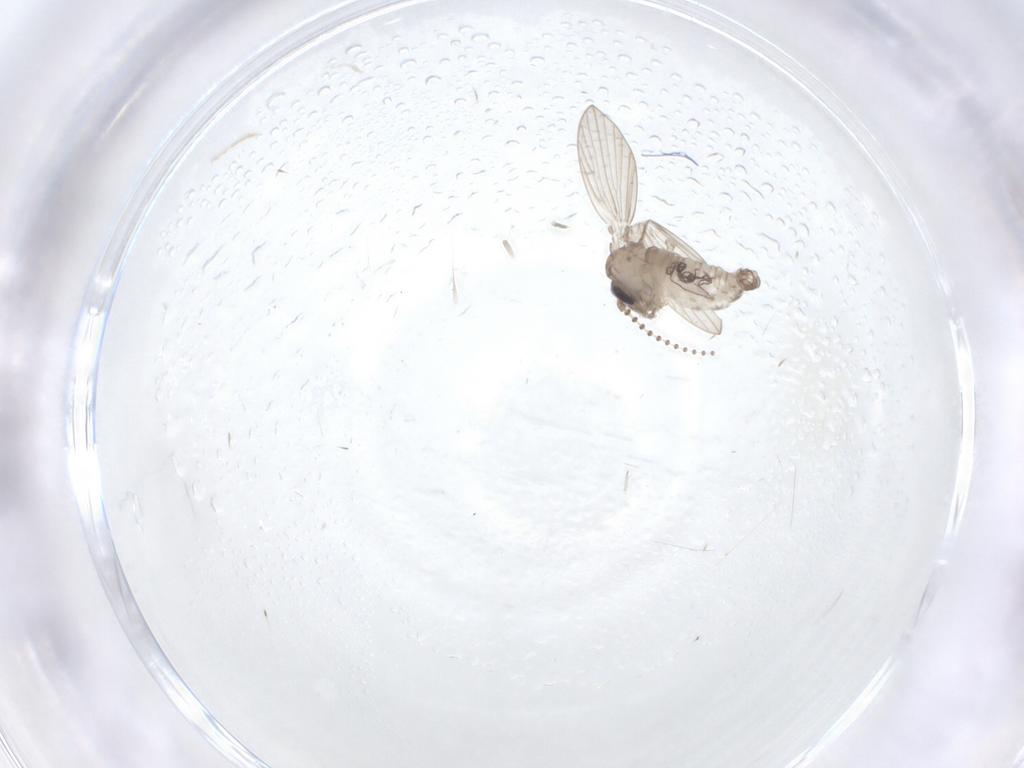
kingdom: Animalia
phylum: Arthropoda
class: Insecta
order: Diptera
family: Psychodidae
